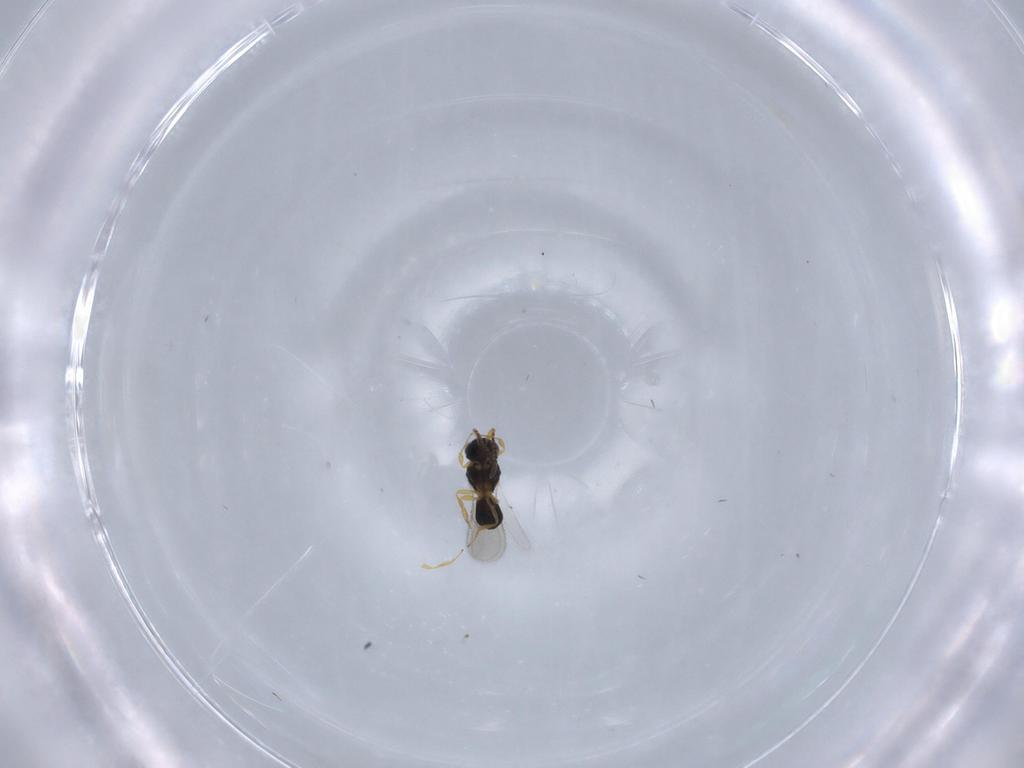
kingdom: Animalia
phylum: Arthropoda
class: Insecta
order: Hymenoptera
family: Scelionidae
